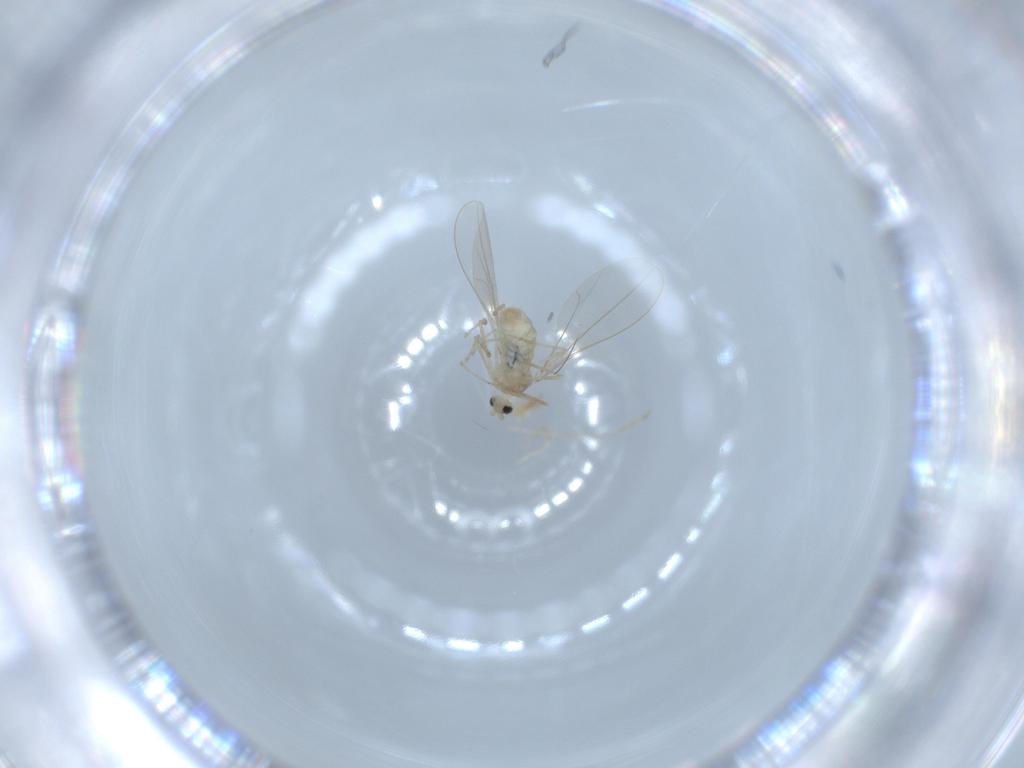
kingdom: Animalia
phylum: Arthropoda
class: Insecta
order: Diptera
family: Cecidomyiidae
